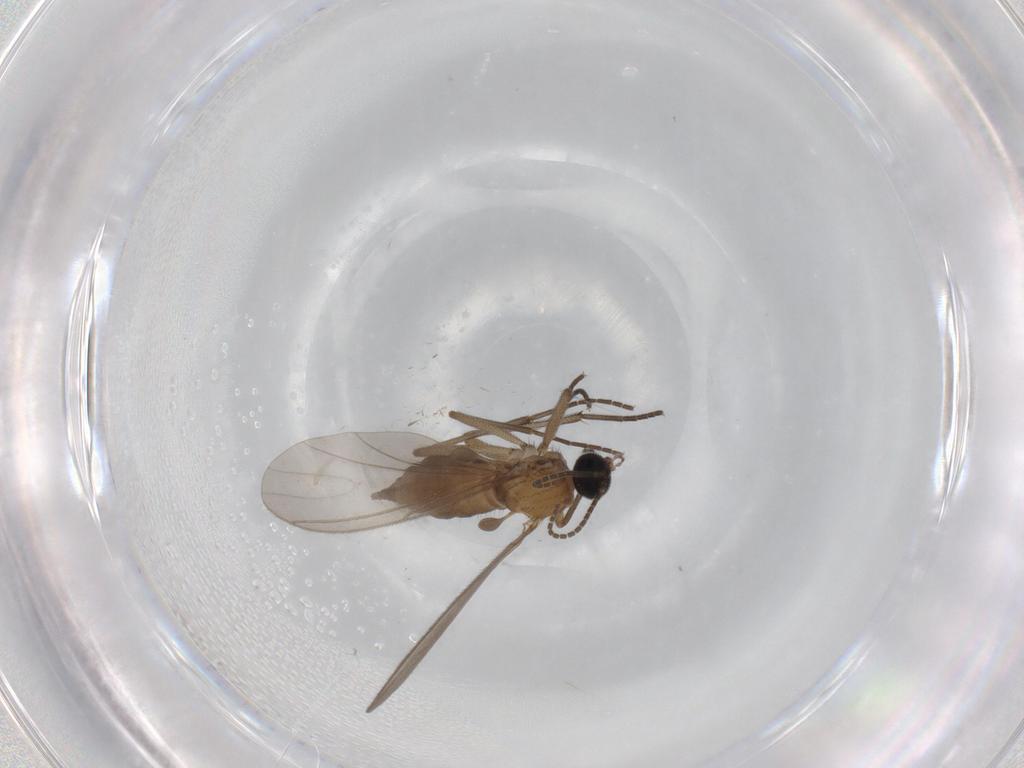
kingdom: Animalia
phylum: Arthropoda
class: Insecta
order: Diptera
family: Sciaridae
